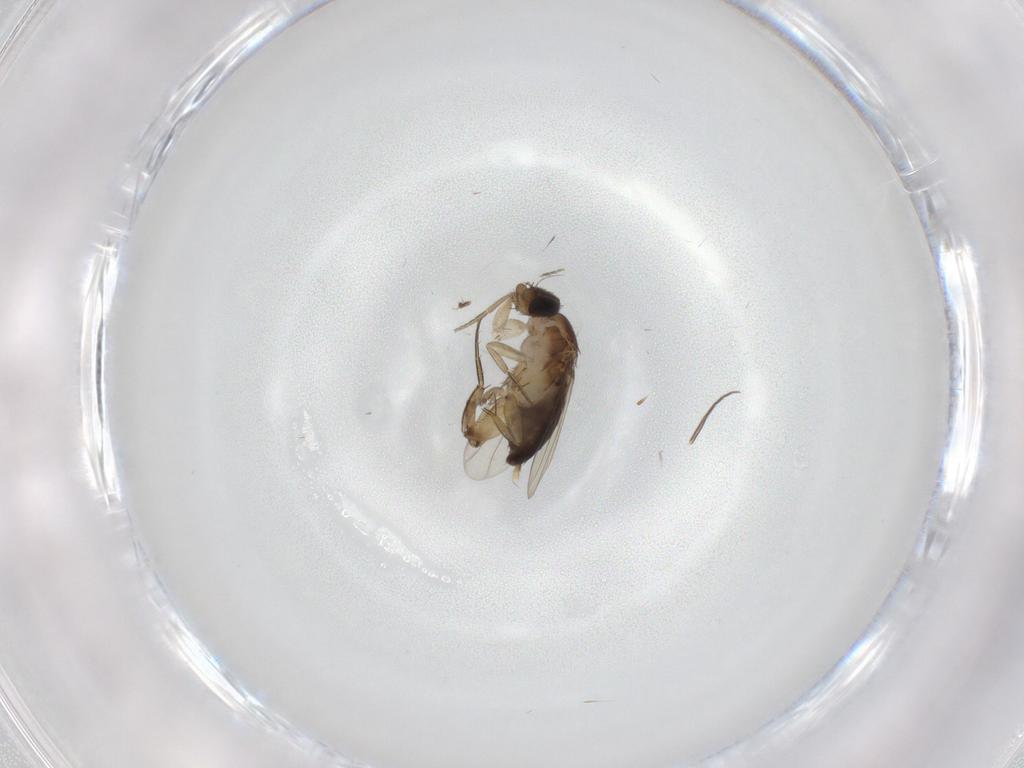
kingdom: Animalia
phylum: Arthropoda
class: Insecta
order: Diptera
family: Phoridae
